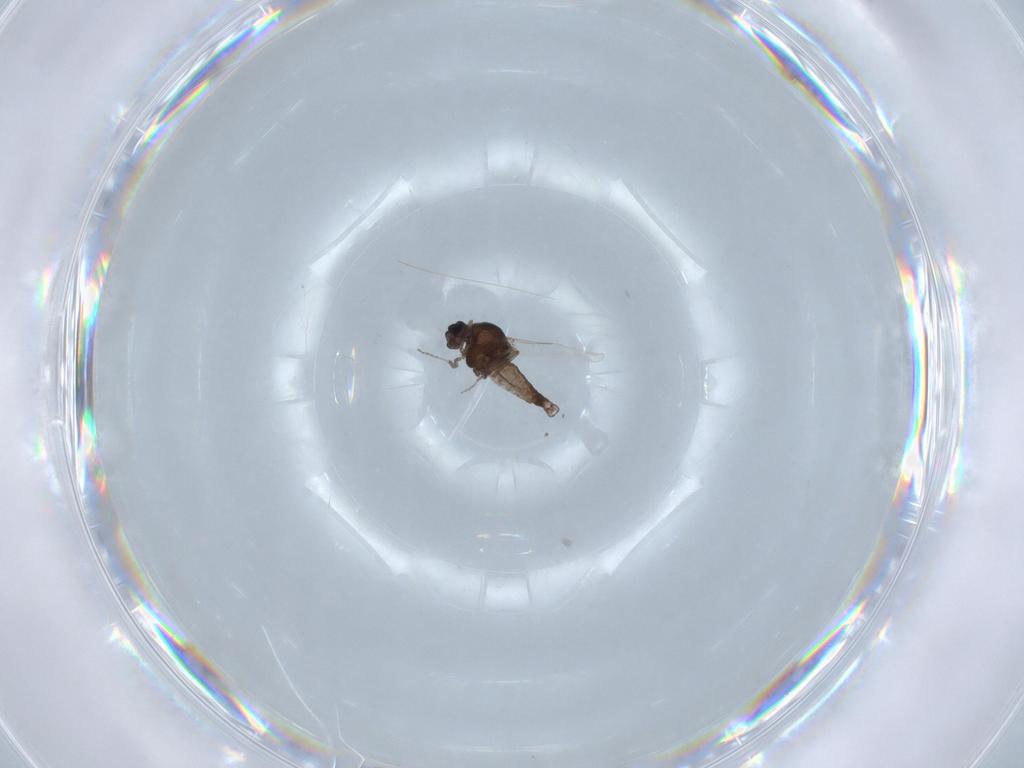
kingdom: Animalia
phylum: Arthropoda
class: Insecta
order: Diptera
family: Ceratopogonidae
